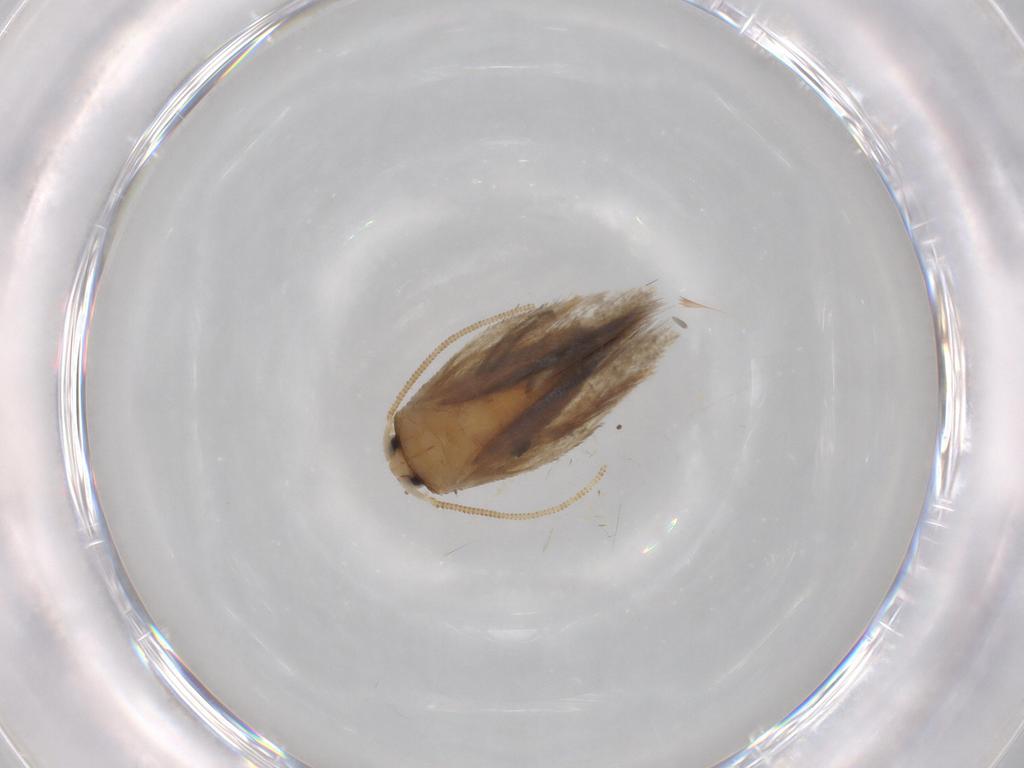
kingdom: Animalia
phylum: Arthropoda
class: Insecta
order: Lepidoptera
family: Nepticulidae
